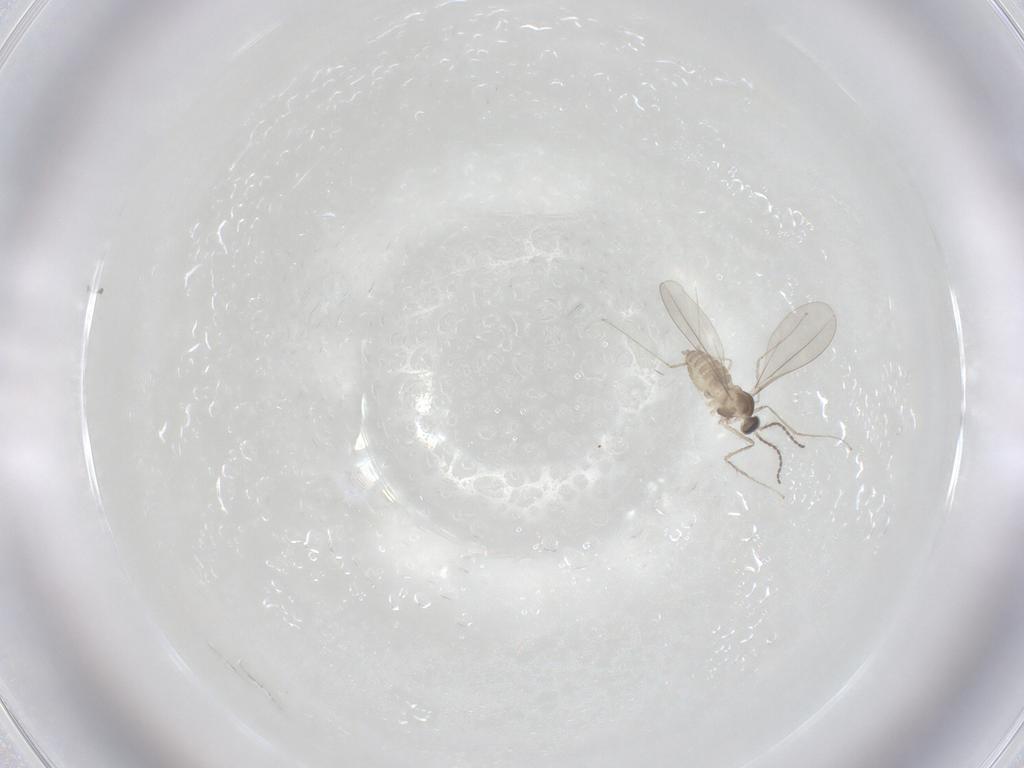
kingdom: Animalia
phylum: Arthropoda
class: Insecta
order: Diptera
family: Cecidomyiidae
